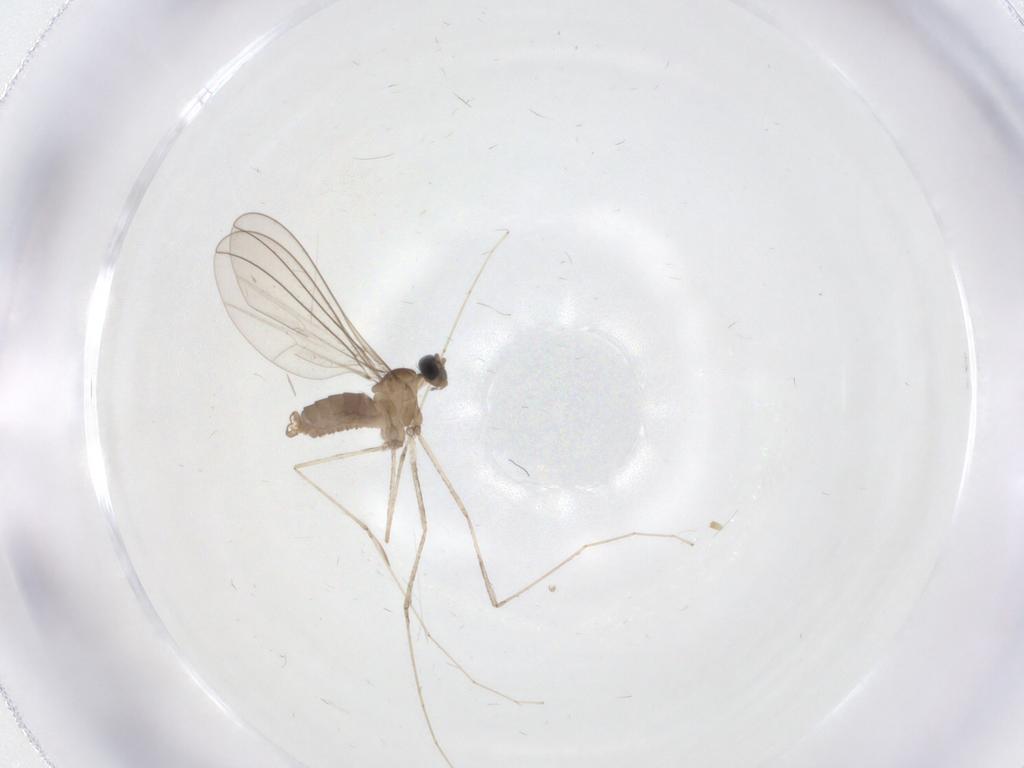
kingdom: Animalia
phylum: Arthropoda
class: Insecta
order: Diptera
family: Cecidomyiidae
